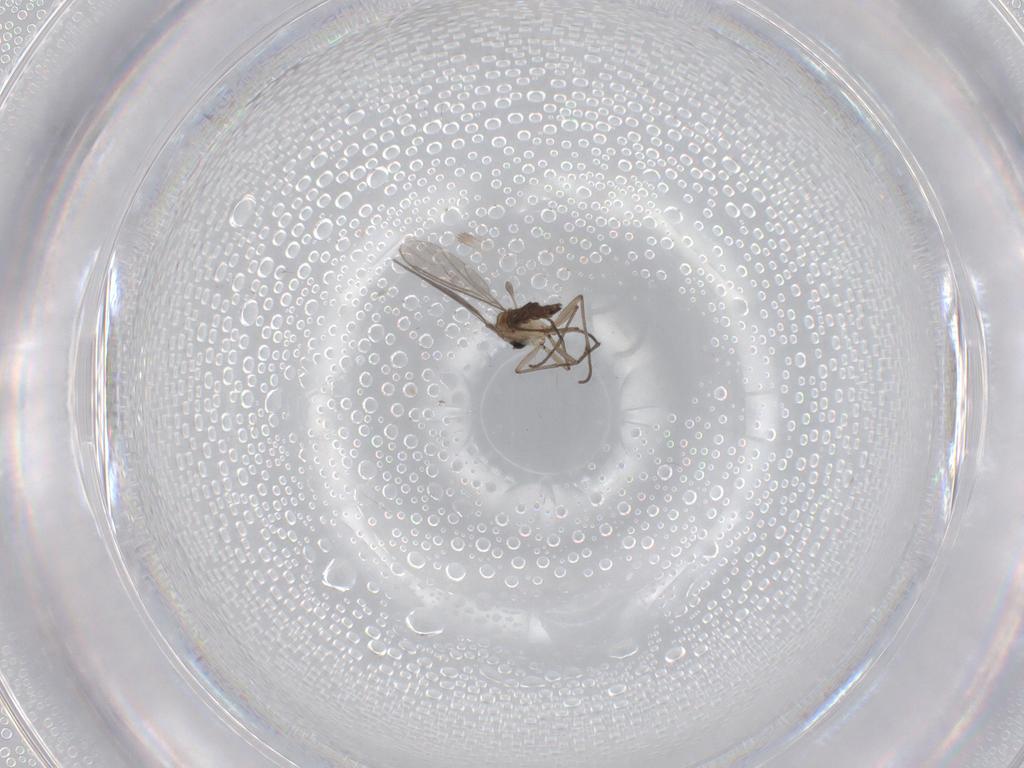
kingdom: Animalia
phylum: Arthropoda
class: Insecta
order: Diptera
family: Sciaridae
